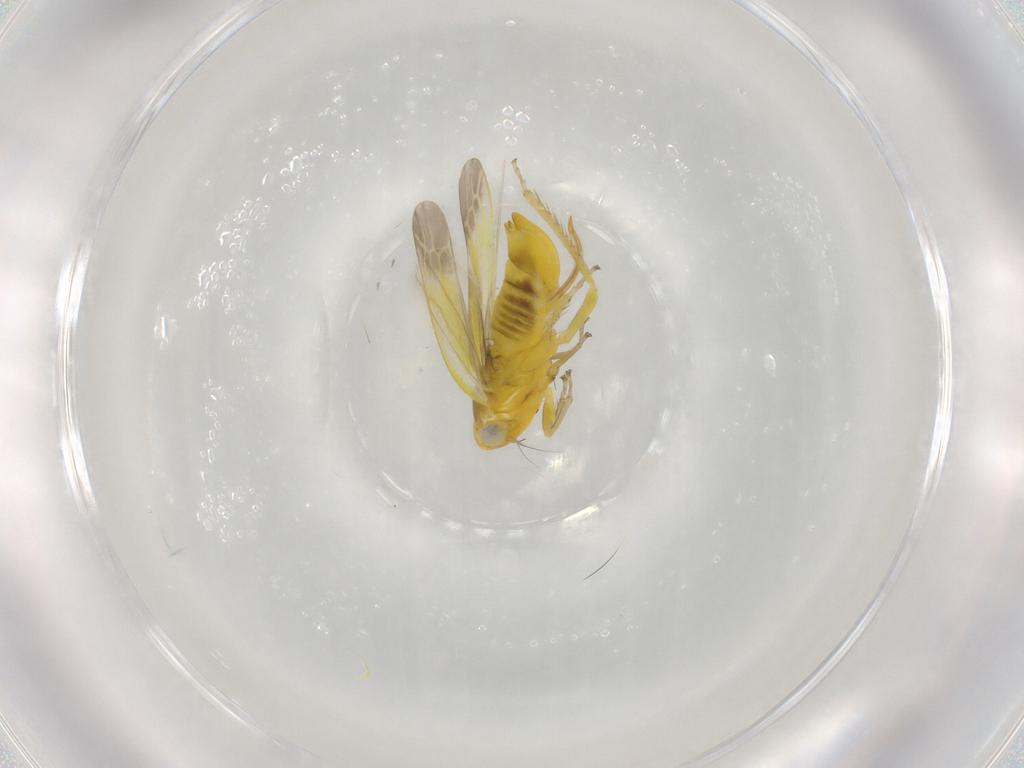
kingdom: Animalia
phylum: Arthropoda
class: Insecta
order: Hemiptera
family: Cicadellidae
